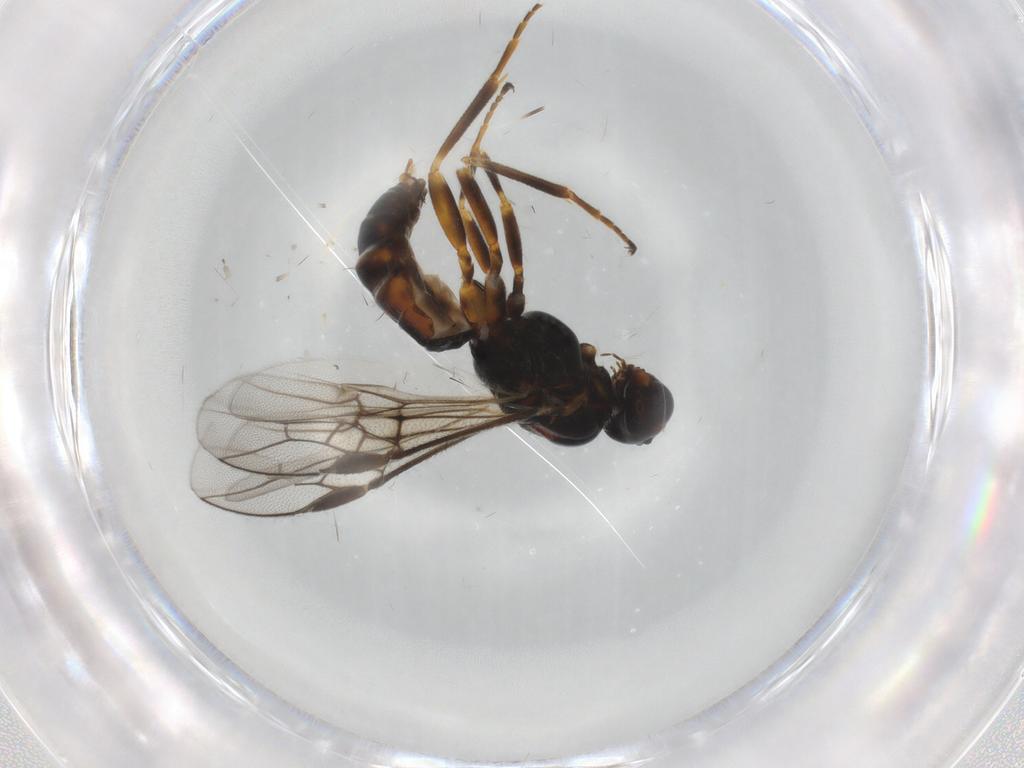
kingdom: Animalia
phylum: Arthropoda
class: Insecta
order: Hymenoptera
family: Braconidae
